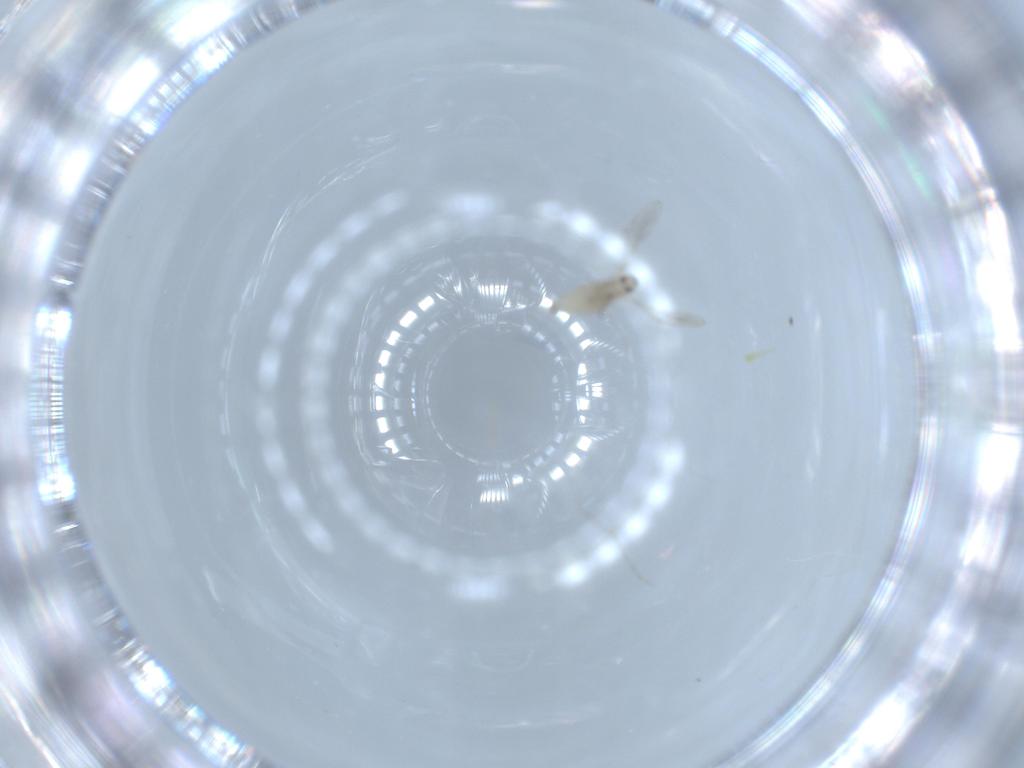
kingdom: Animalia
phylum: Arthropoda
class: Insecta
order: Diptera
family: Cecidomyiidae
